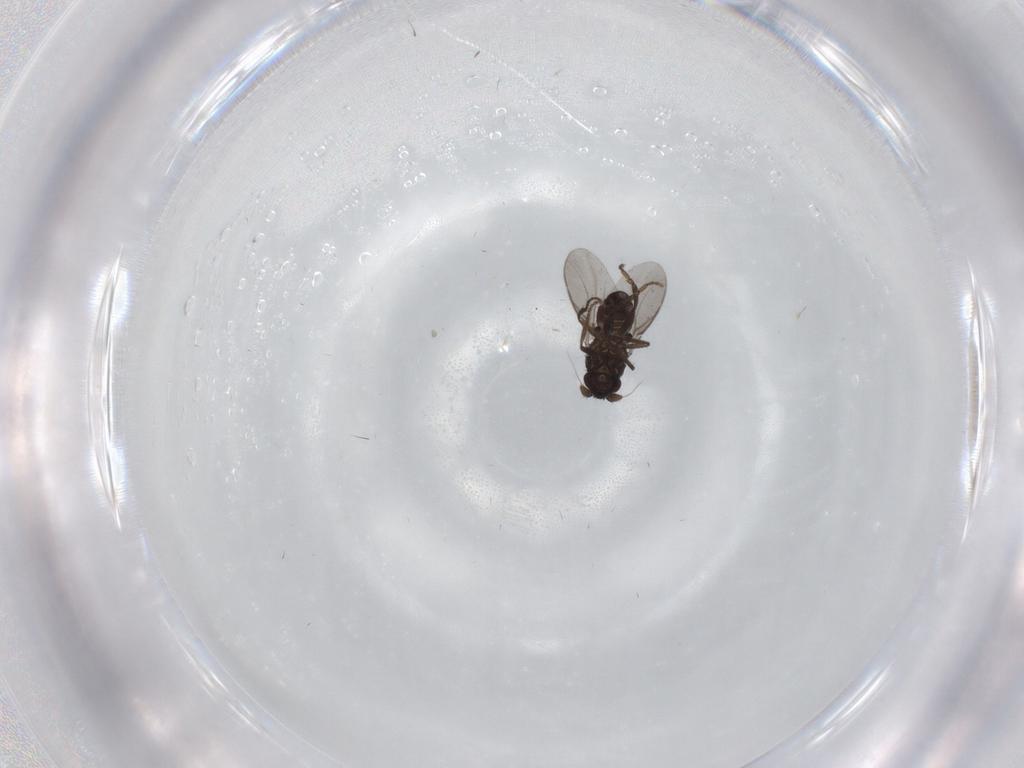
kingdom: Animalia
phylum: Arthropoda
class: Insecta
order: Diptera
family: Sphaeroceridae
